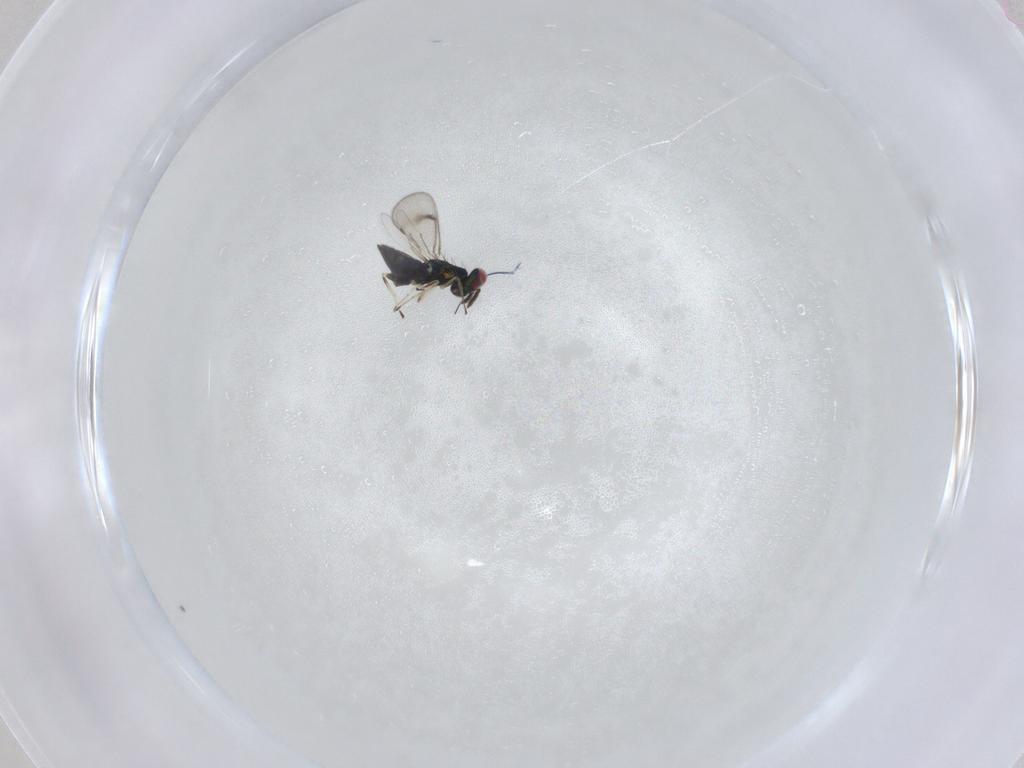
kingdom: Animalia
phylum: Arthropoda
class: Insecta
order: Hymenoptera
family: Eulophidae
